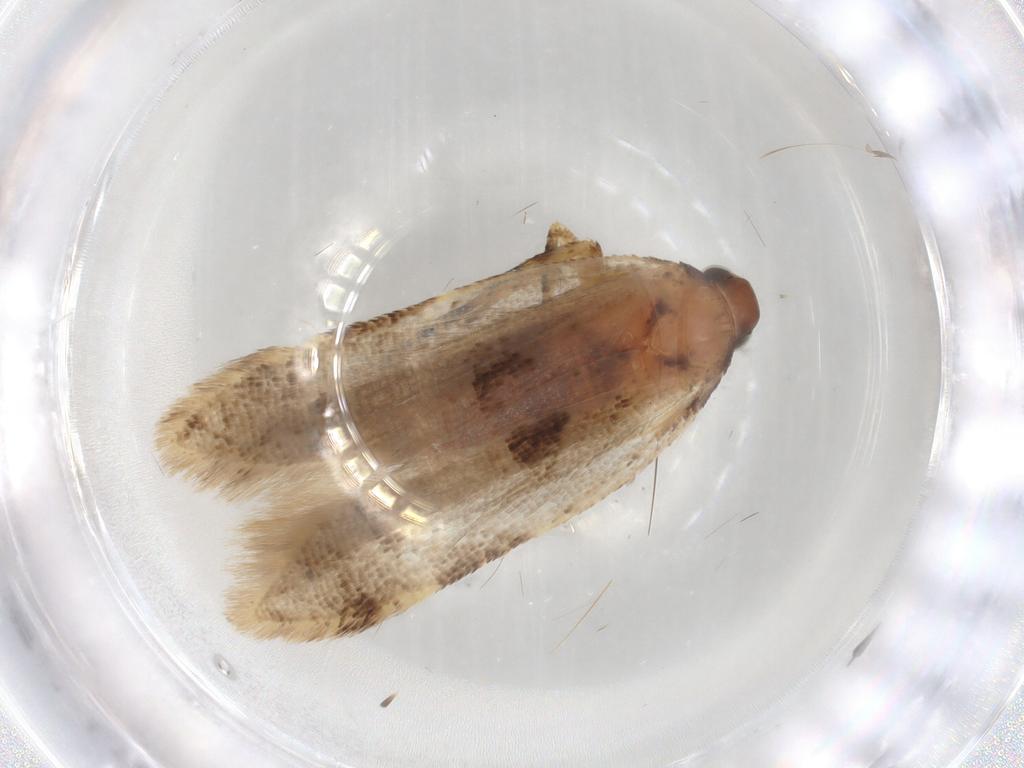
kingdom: Animalia
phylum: Arthropoda
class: Insecta
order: Lepidoptera
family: Gelechiidae
